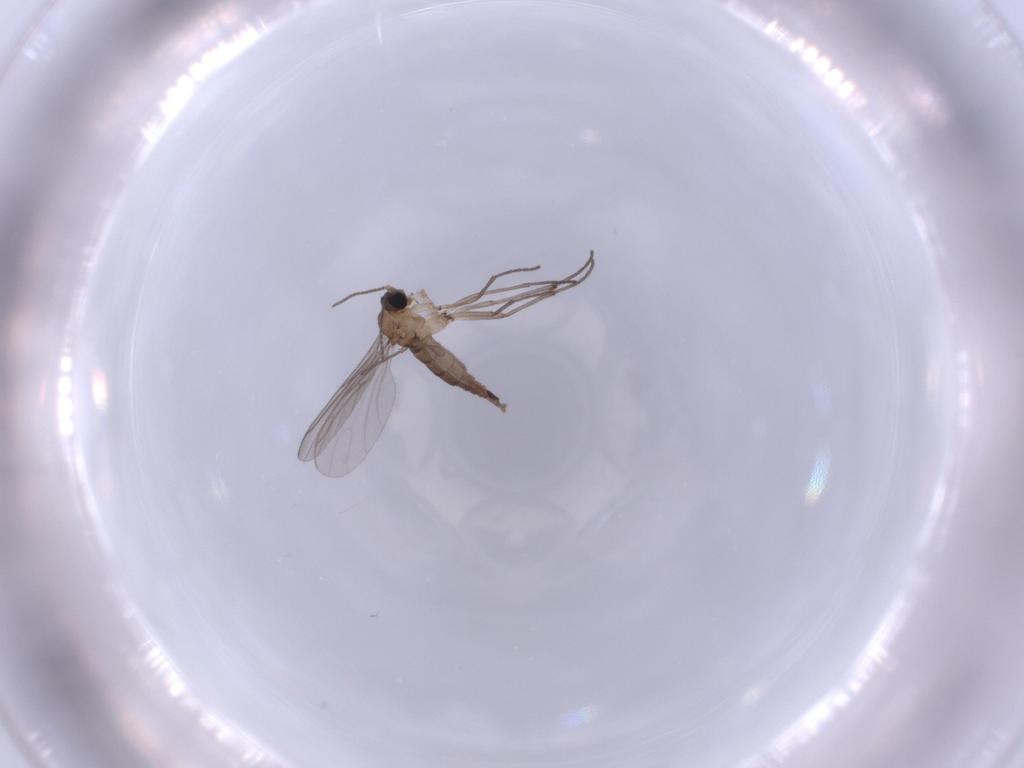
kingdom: Animalia
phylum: Arthropoda
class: Insecta
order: Diptera
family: Sciaridae
